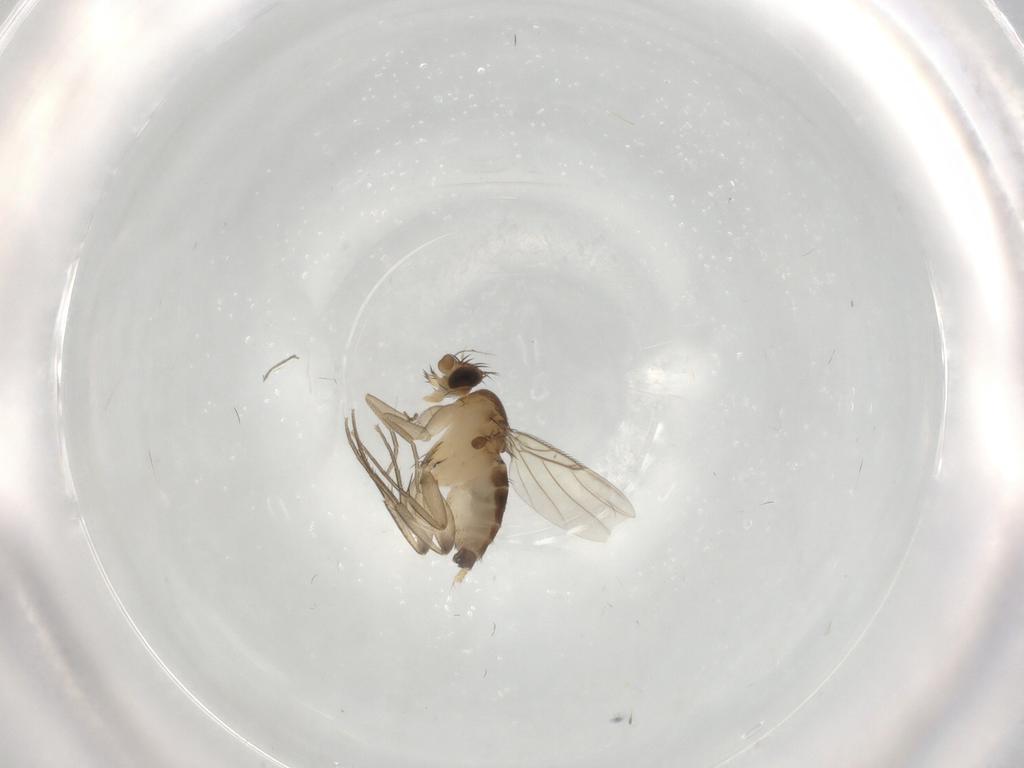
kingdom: Animalia
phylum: Arthropoda
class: Insecta
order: Diptera
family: Phoridae
